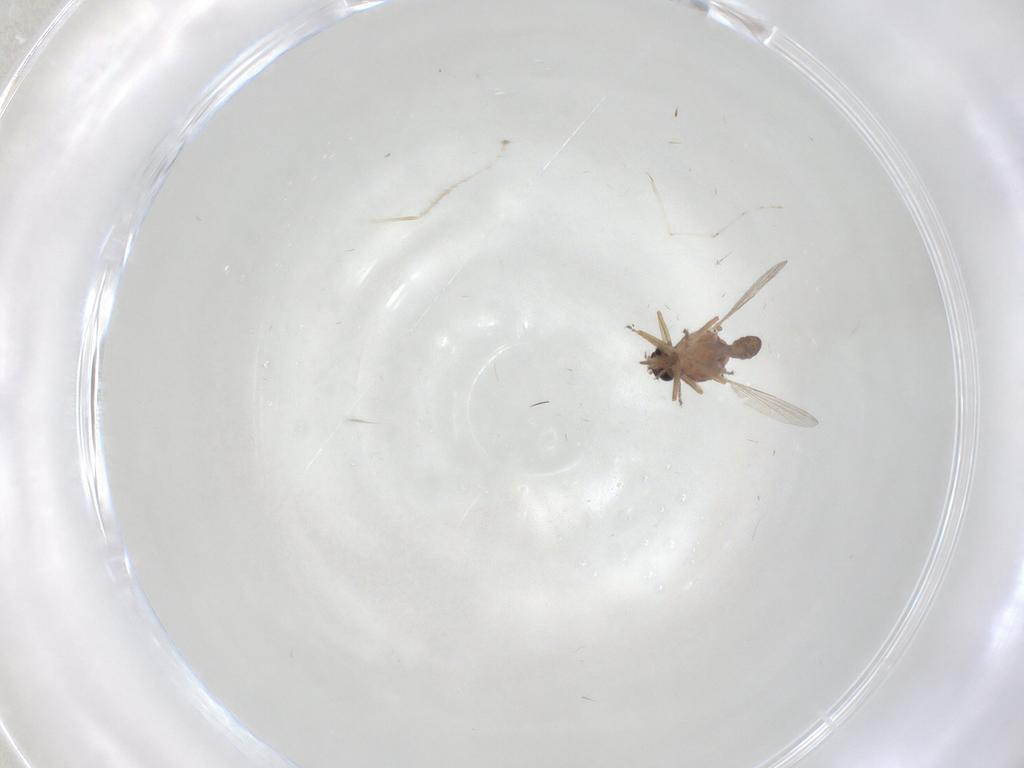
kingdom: Animalia
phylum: Arthropoda
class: Insecta
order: Diptera
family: Ceratopogonidae
